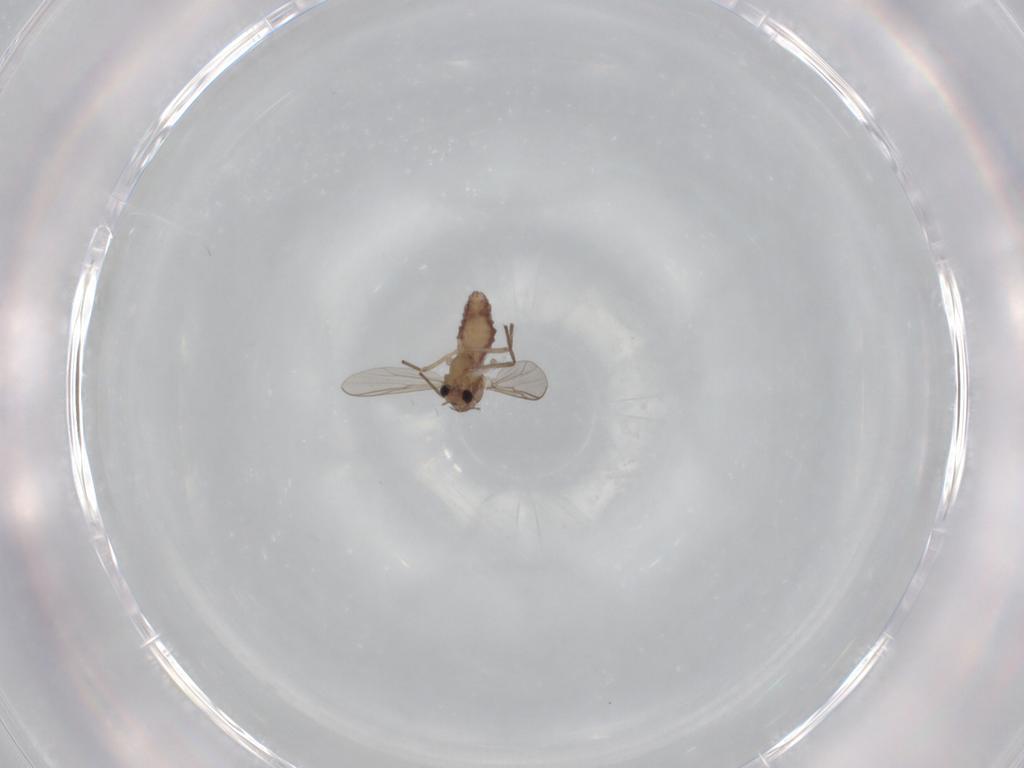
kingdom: Animalia
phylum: Arthropoda
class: Insecta
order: Diptera
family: Chironomidae
